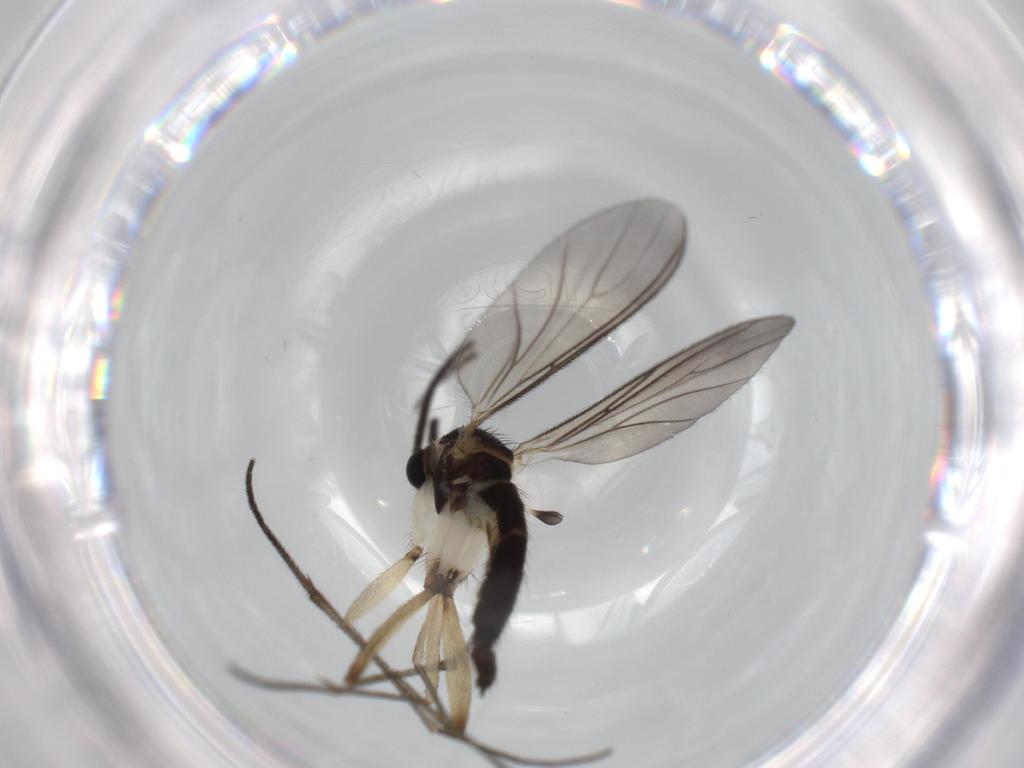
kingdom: Animalia
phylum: Arthropoda
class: Insecta
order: Diptera
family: Sciaridae
